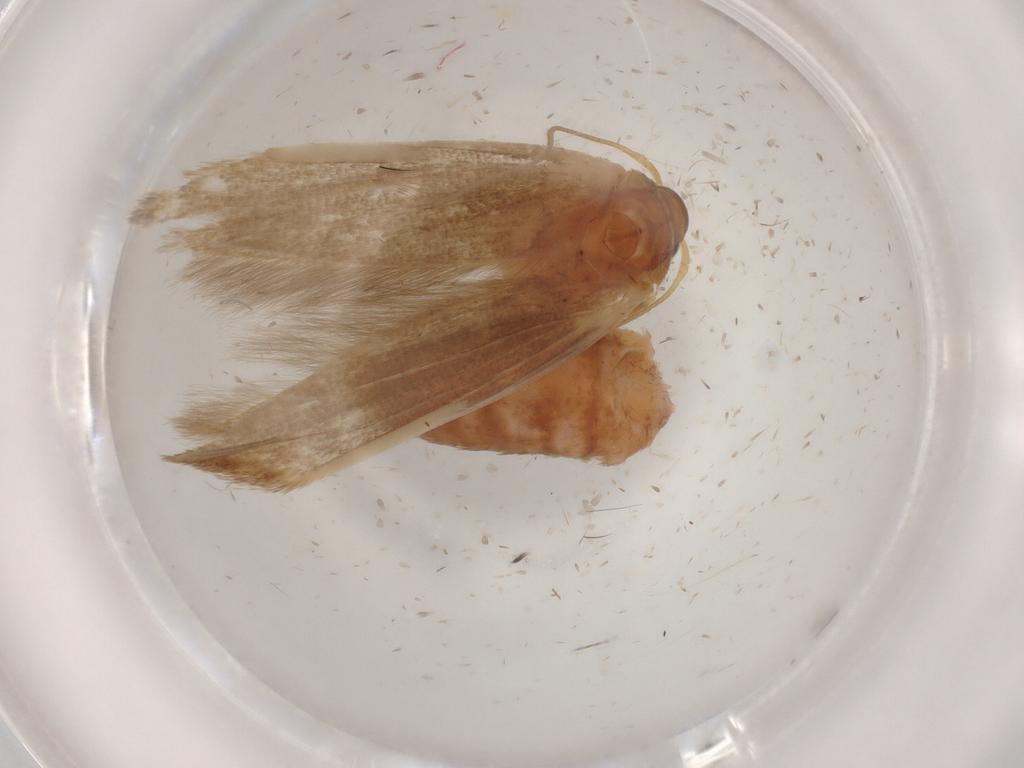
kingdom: Animalia
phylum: Arthropoda
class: Insecta
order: Lepidoptera
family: Blastobasidae
